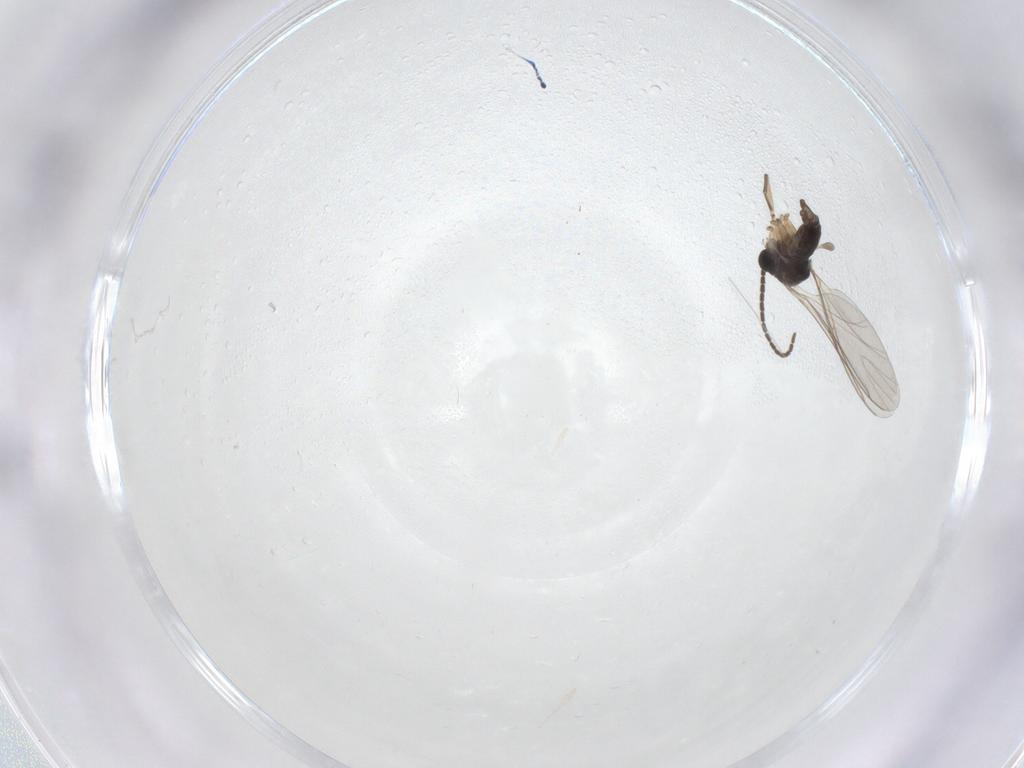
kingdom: Animalia
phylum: Arthropoda
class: Insecta
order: Diptera
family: Sciaridae
